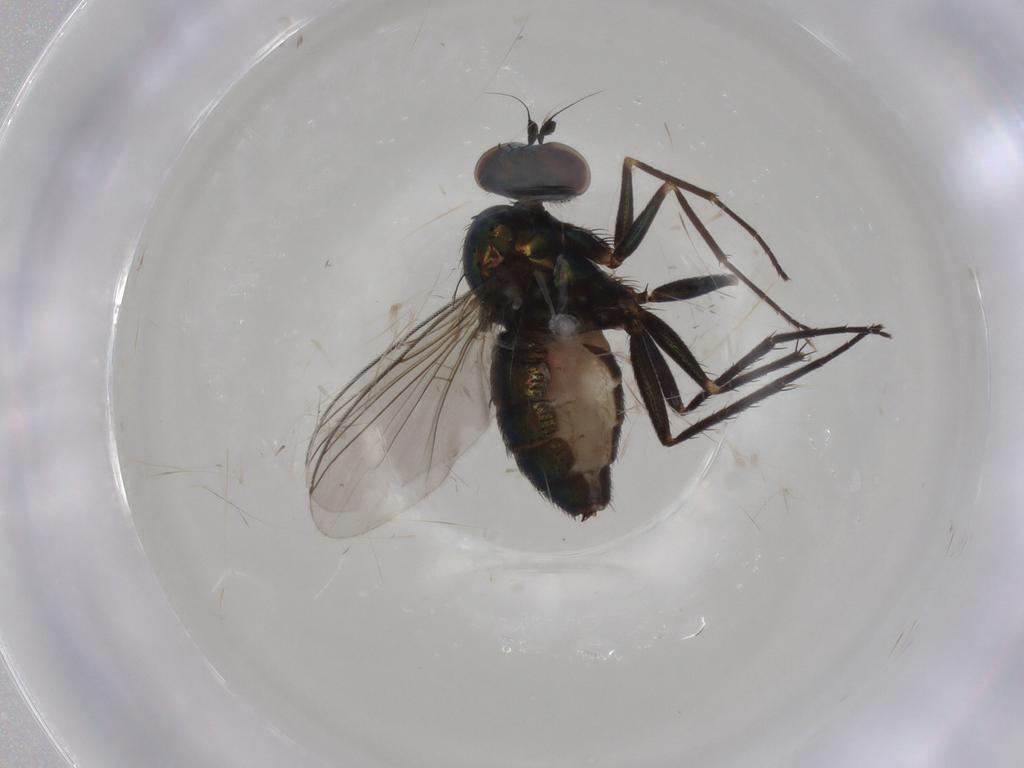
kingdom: Animalia
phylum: Arthropoda
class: Insecta
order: Diptera
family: Dolichopodidae
